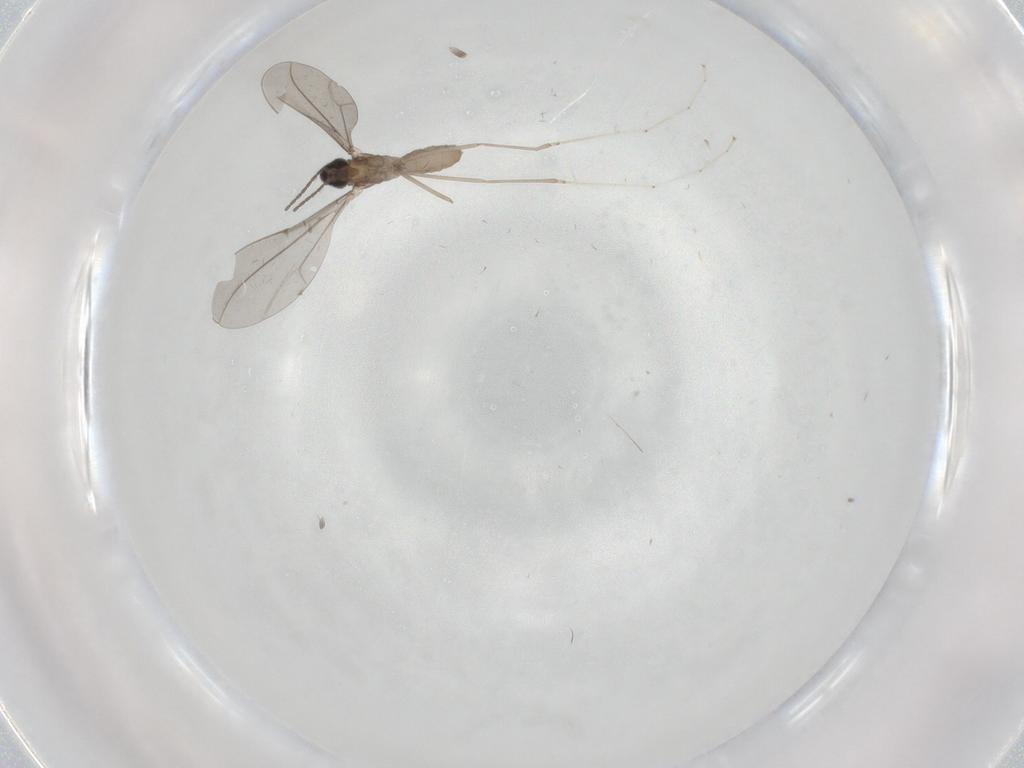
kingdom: Animalia
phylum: Arthropoda
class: Insecta
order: Diptera
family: Cecidomyiidae
